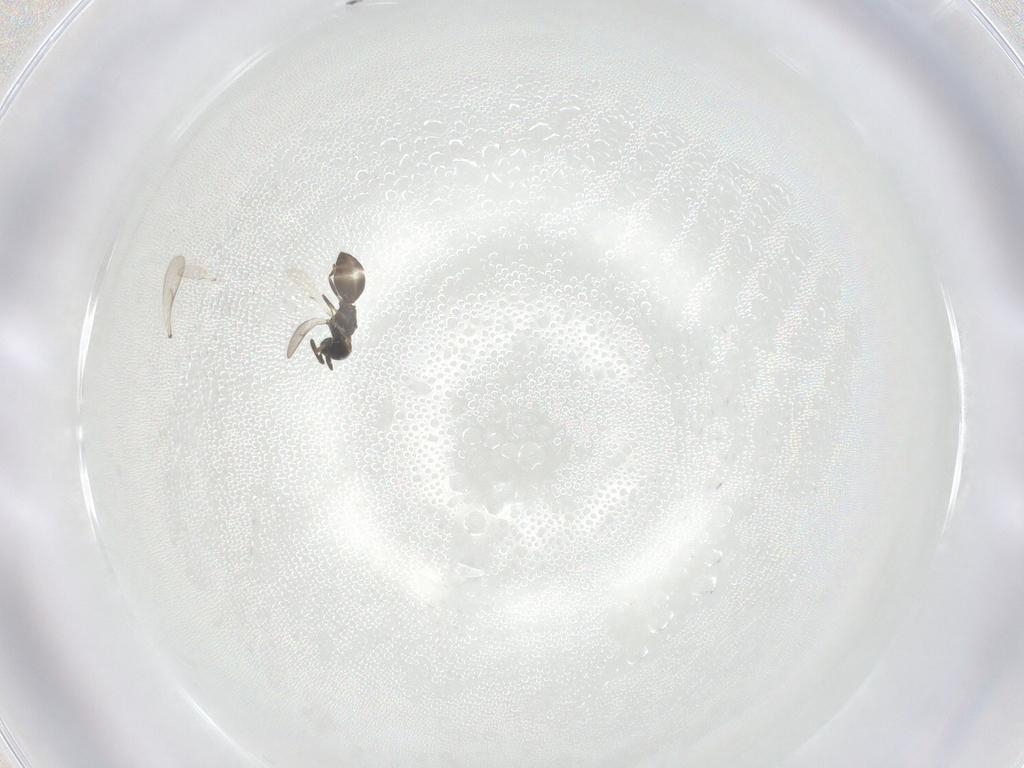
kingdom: Animalia
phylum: Arthropoda
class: Insecta
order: Hymenoptera
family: Scelionidae
